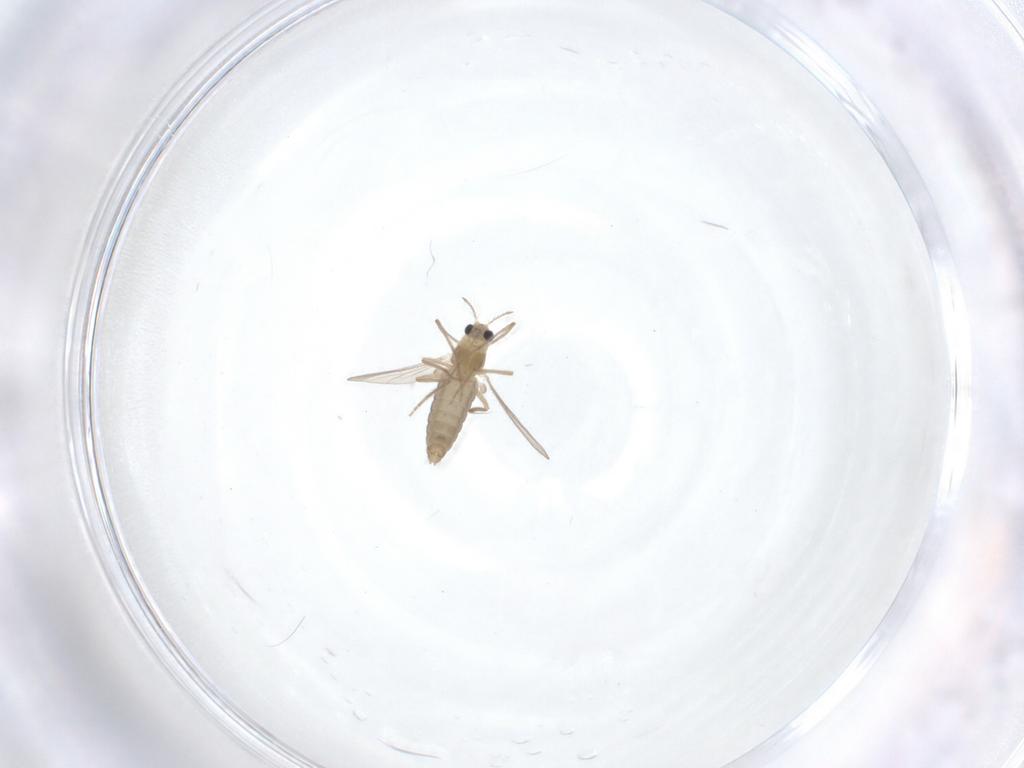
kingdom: Animalia
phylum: Arthropoda
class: Insecta
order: Diptera
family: Chironomidae
